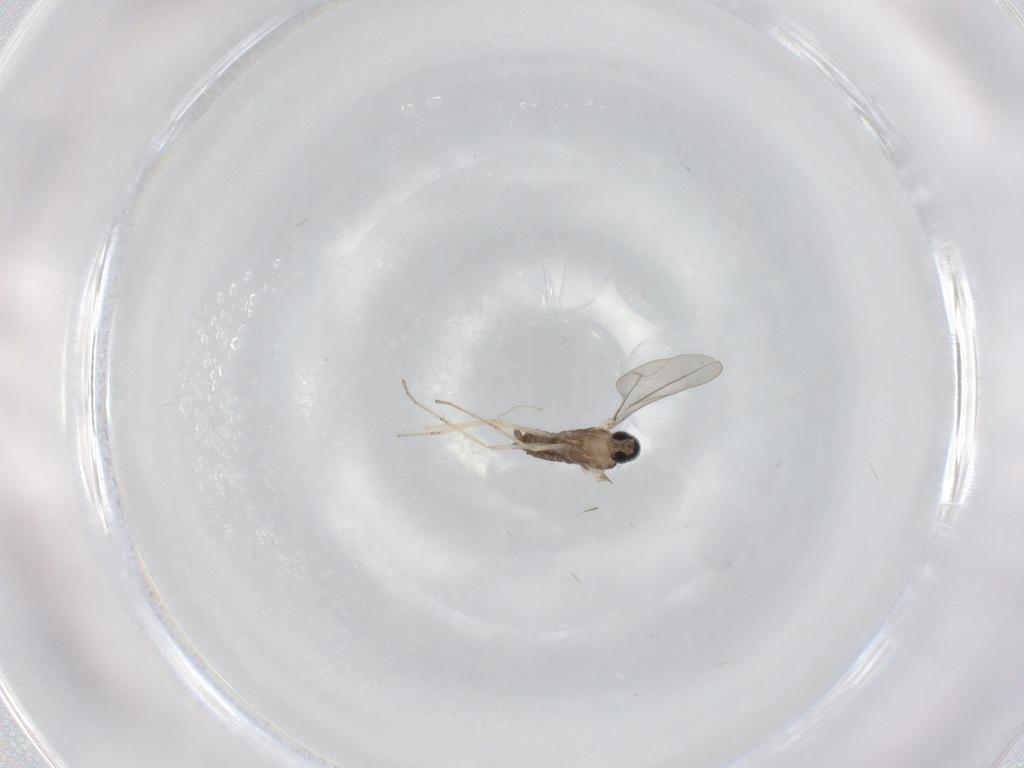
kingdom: Animalia
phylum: Arthropoda
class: Insecta
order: Diptera
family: Cecidomyiidae
